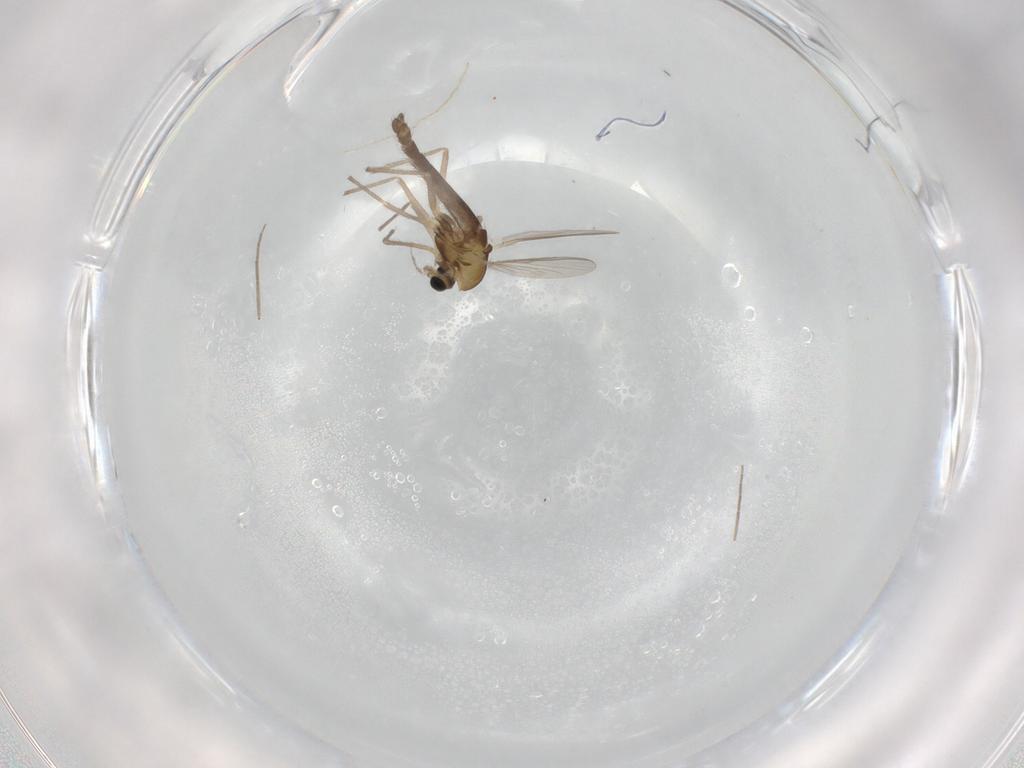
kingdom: Animalia
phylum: Arthropoda
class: Insecta
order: Diptera
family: Chironomidae
